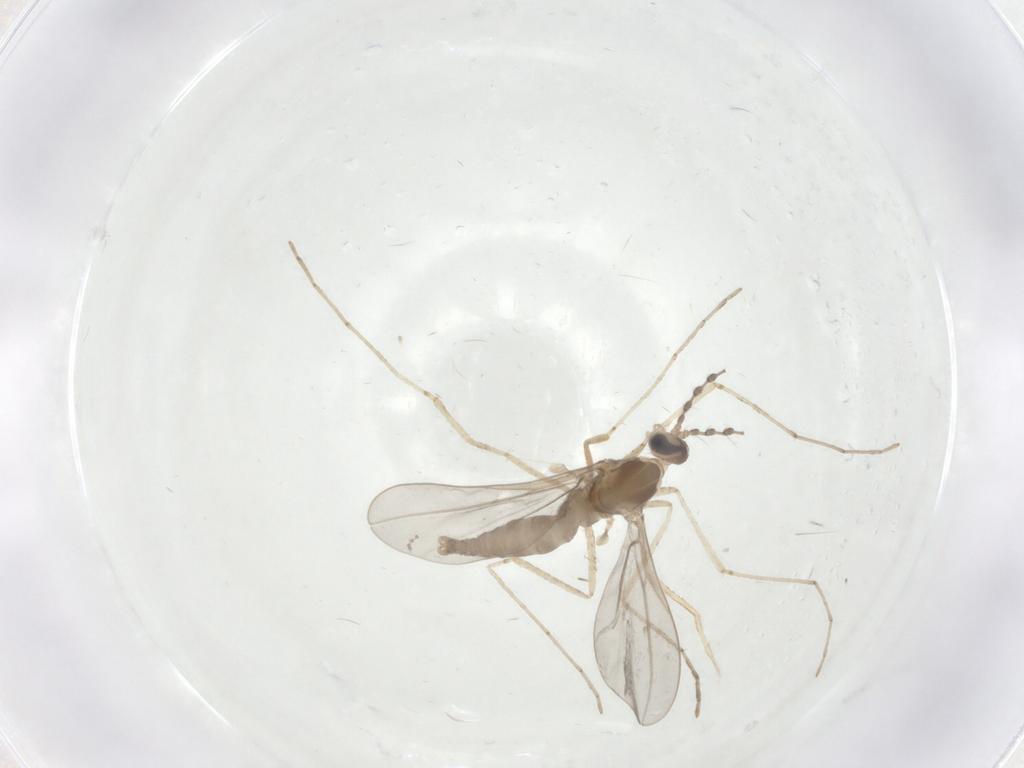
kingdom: Animalia
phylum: Arthropoda
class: Insecta
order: Diptera
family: Cecidomyiidae
